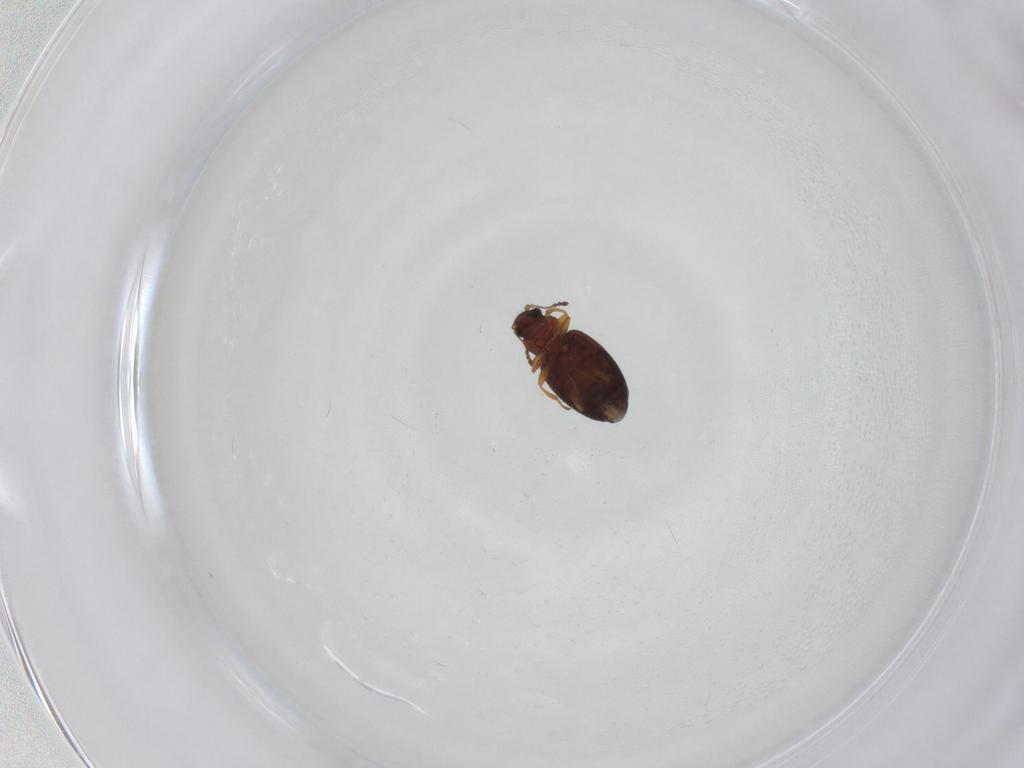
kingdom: Animalia
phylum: Arthropoda
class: Insecta
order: Coleoptera
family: Latridiidae
